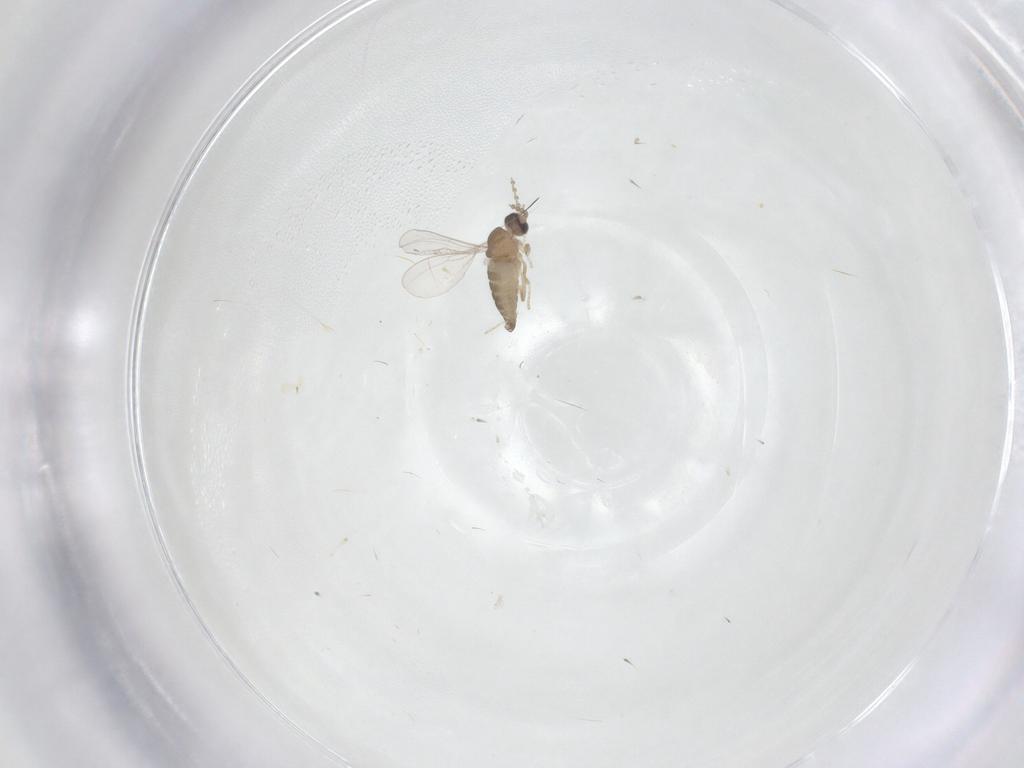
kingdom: Animalia
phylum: Arthropoda
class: Insecta
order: Diptera
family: Cecidomyiidae
